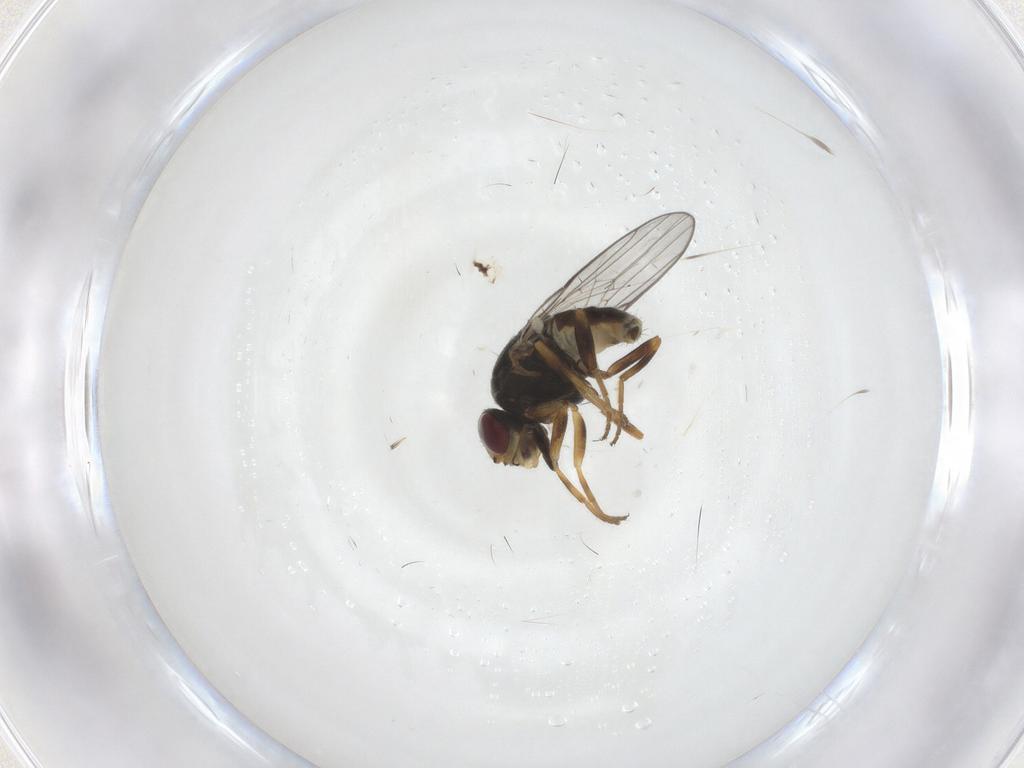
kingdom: Animalia
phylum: Arthropoda
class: Insecta
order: Diptera
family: Chloropidae
